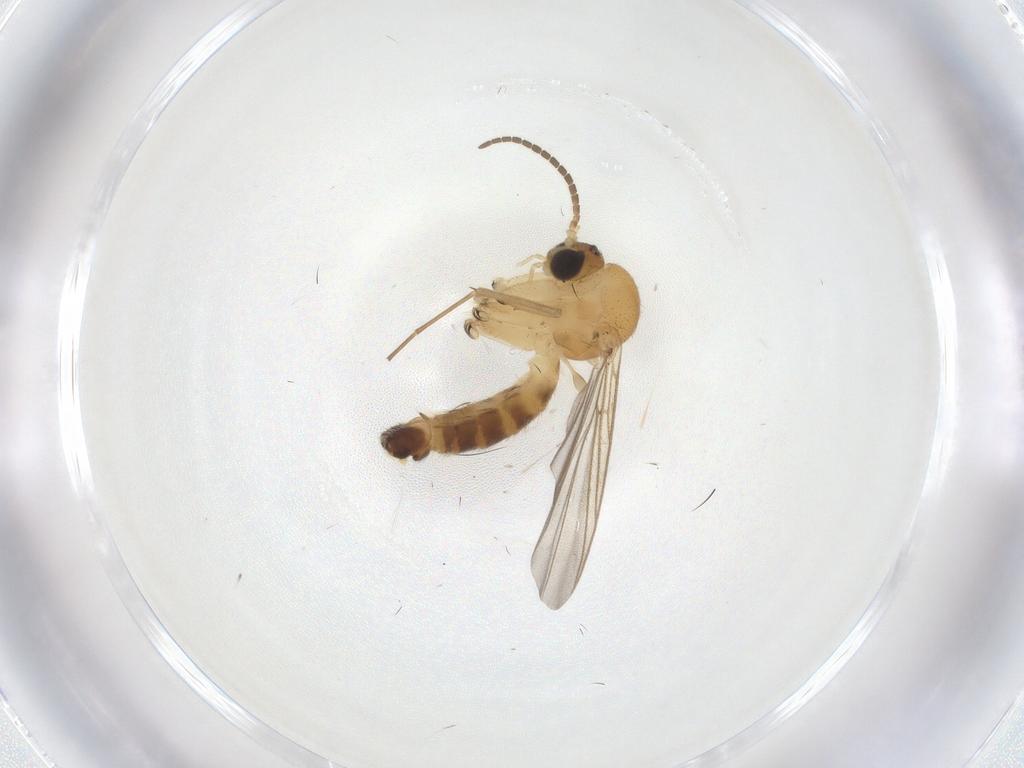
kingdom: Animalia
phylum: Arthropoda
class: Insecta
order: Diptera
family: Mycetophilidae
